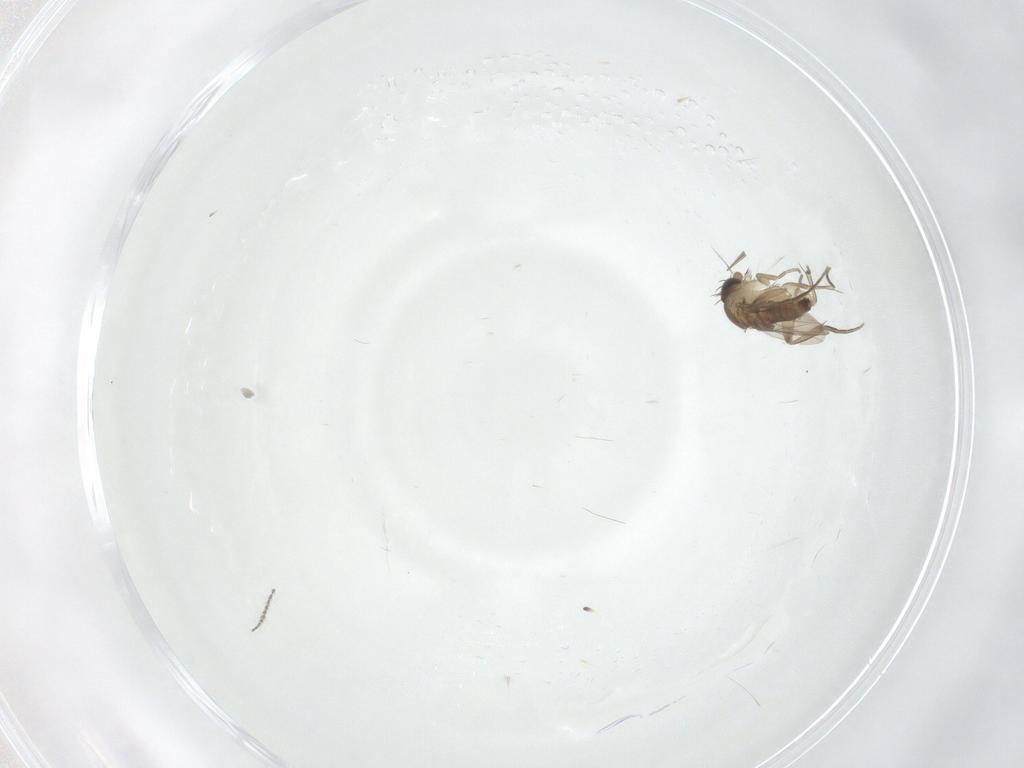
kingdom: Animalia
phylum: Arthropoda
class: Insecta
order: Diptera
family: Phoridae
